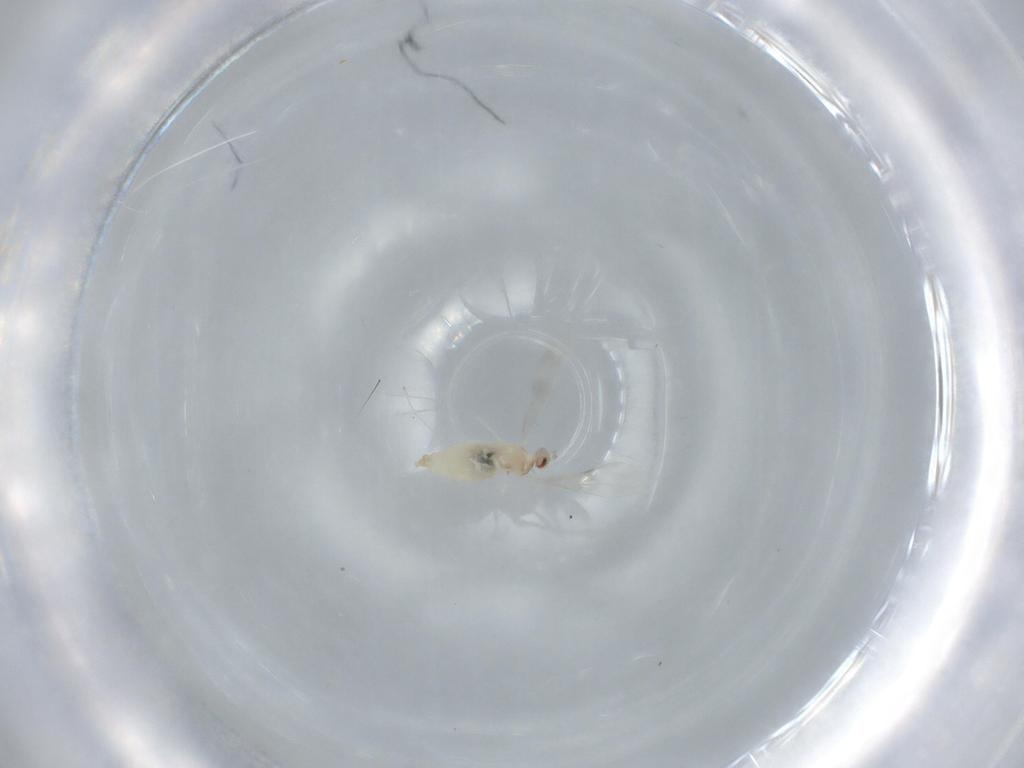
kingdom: Animalia
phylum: Arthropoda
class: Insecta
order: Diptera
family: Cecidomyiidae
